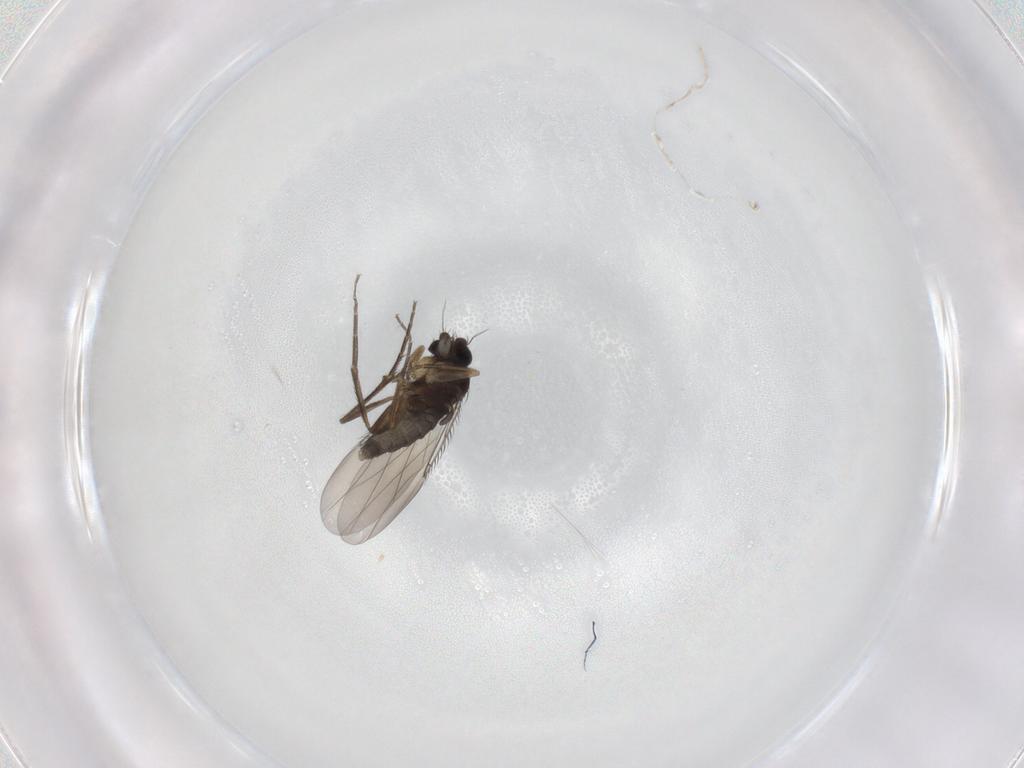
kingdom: Animalia
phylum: Arthropoda
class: Insecta
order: Diptera
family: Phoridae
